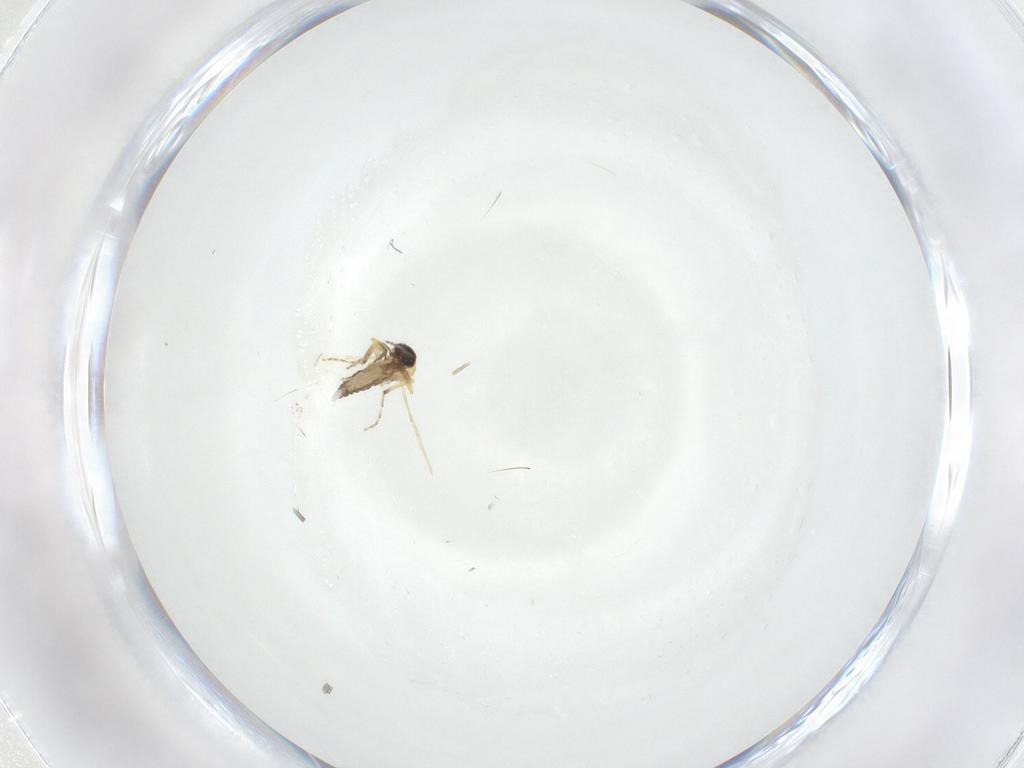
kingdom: Animalia
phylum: Arthropoda
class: Insecta
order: Diptera
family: Ceratopogonidae
